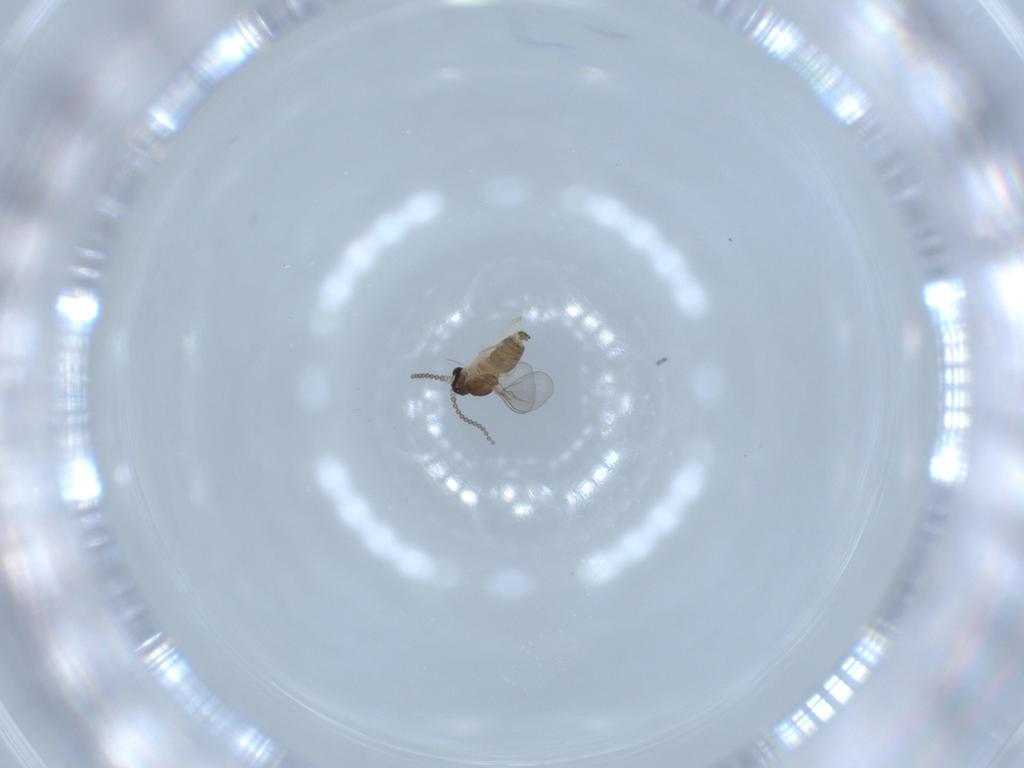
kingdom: Animalia
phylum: Arthropoda
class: Insecta
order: Diptera
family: Cecidomyiidae
